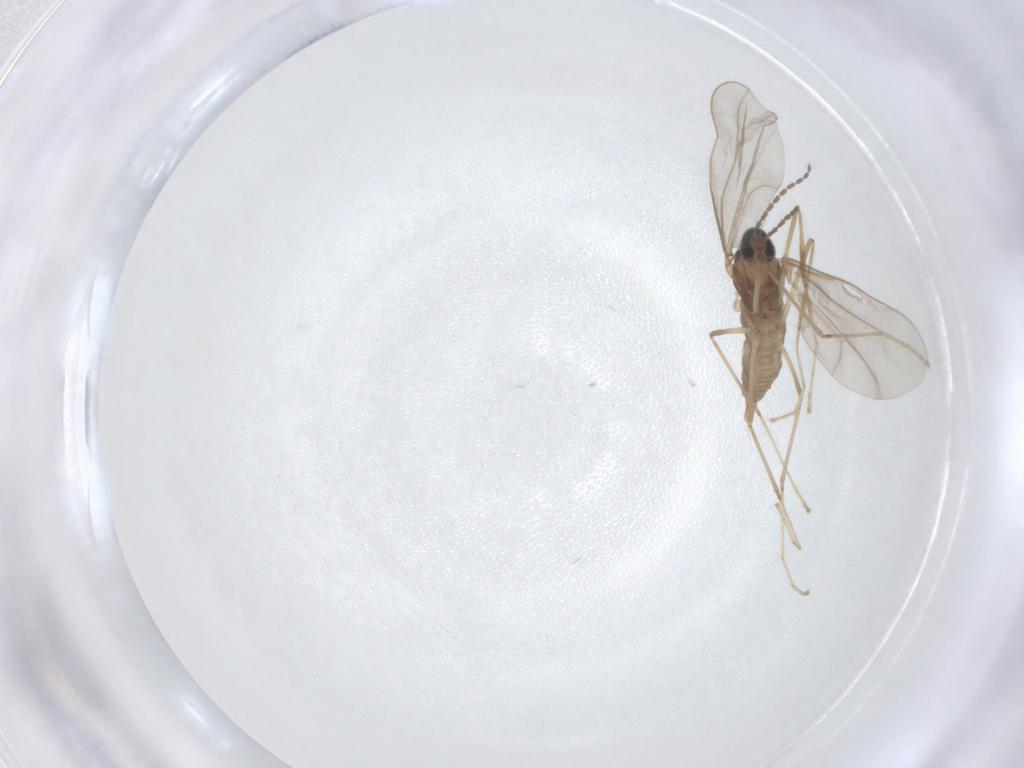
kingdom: Animalia
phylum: Arthropoda
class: Insecta
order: Diptera
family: Cecidomyiidae
